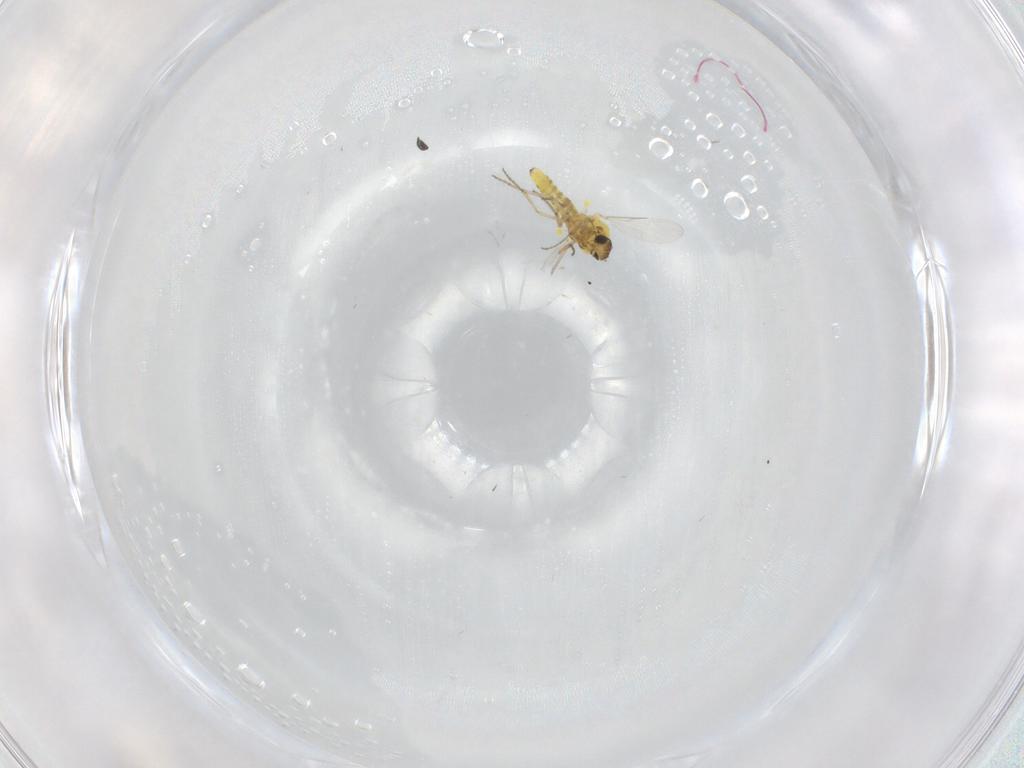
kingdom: Animalia
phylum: Arthropoda
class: Insecta
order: Diptera
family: Ceratopogonidae
